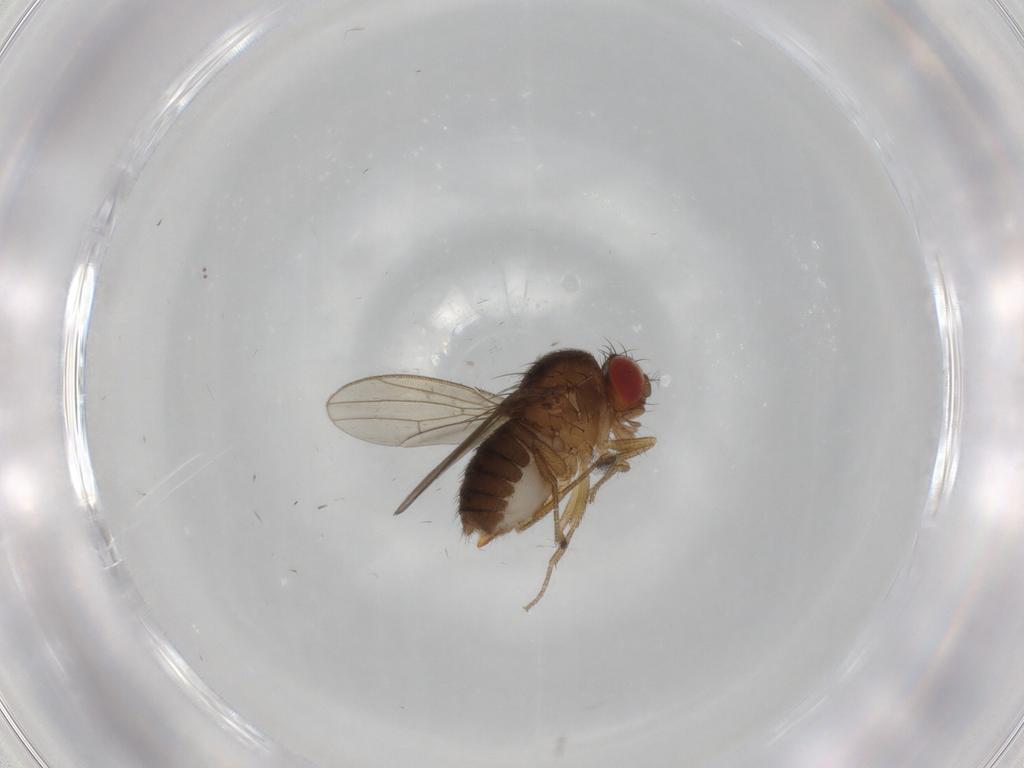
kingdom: Animalia
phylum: Arthropoda
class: Insecta
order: Diptera
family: Drosophilidae
